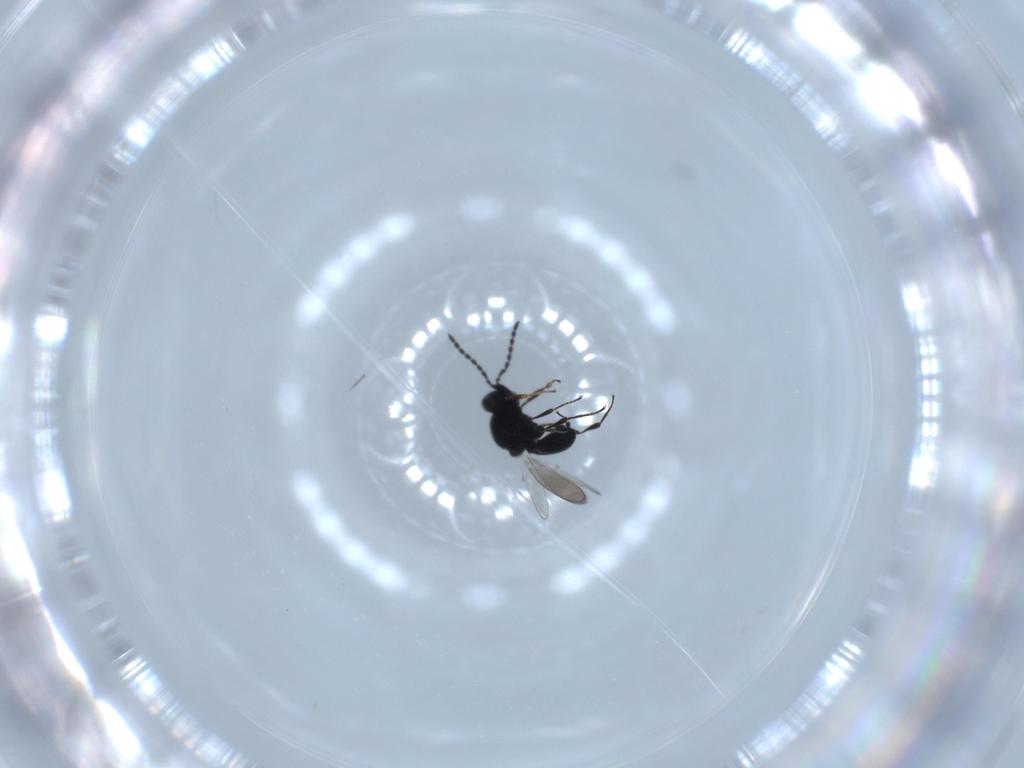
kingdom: Animalia
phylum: Arthropoda
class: Insecta
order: Hymenoptera
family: Platygastridae
